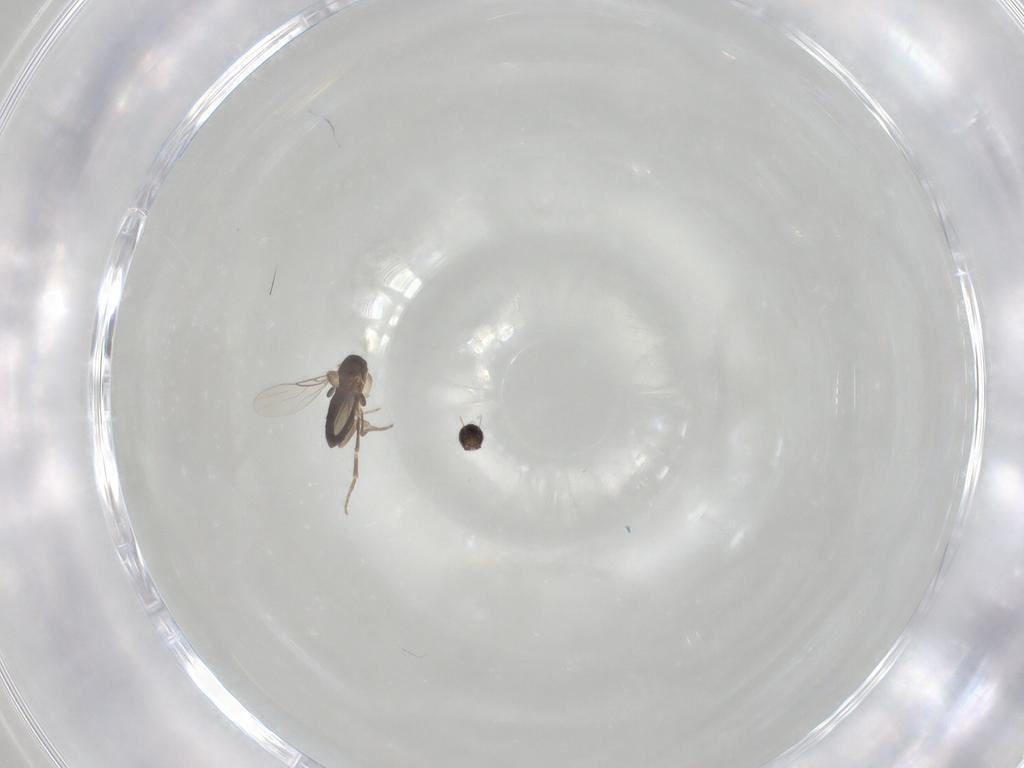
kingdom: Animalia
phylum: Arthropoda
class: Insecta
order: Diptera
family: Phoridae
